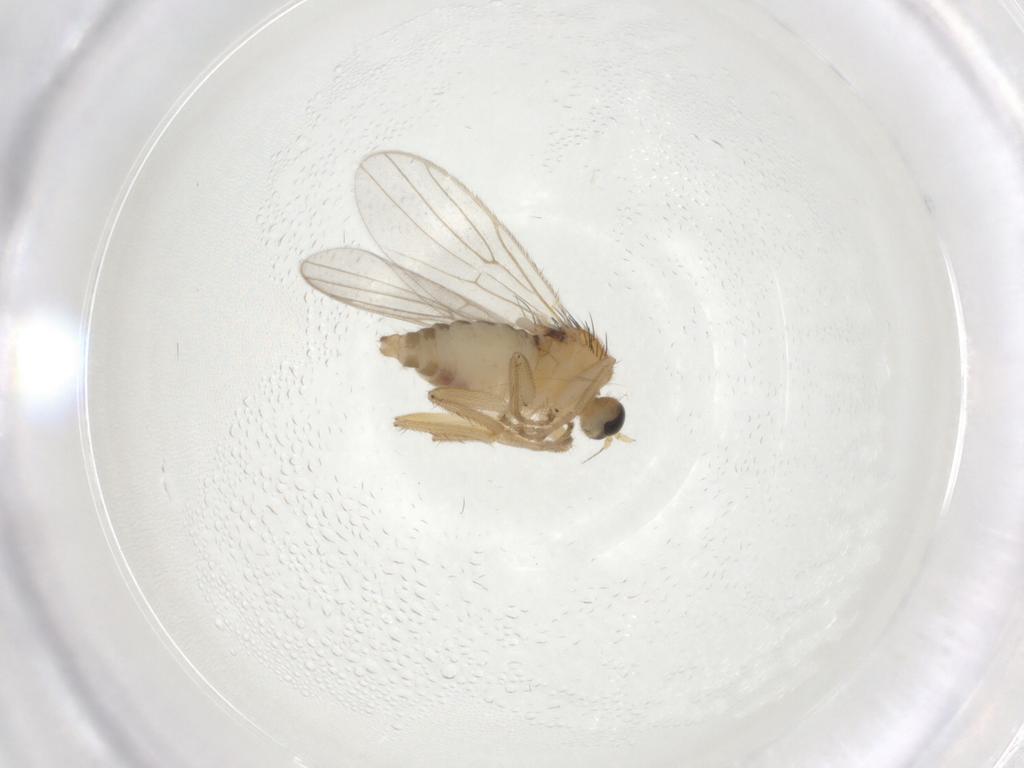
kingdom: Animalia
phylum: Arthropoda
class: Insecta
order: Diptera
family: Hybotidae
